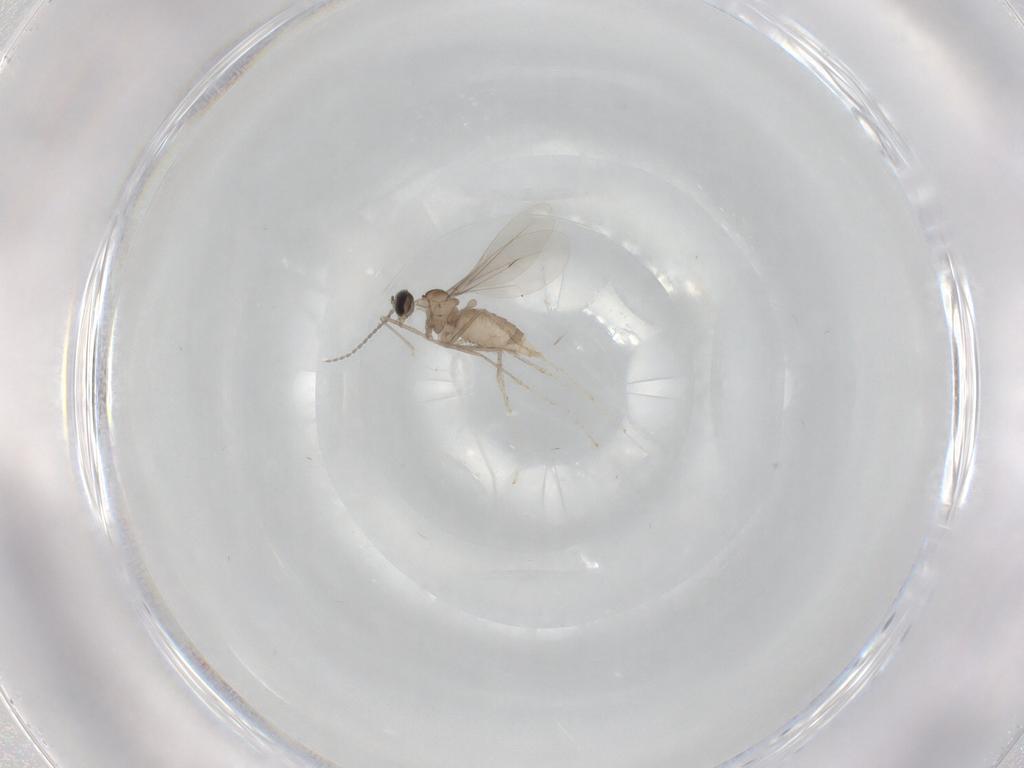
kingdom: Animalia
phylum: Arthropoda
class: Insecta
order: Diptera
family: Cecidomyiidae
